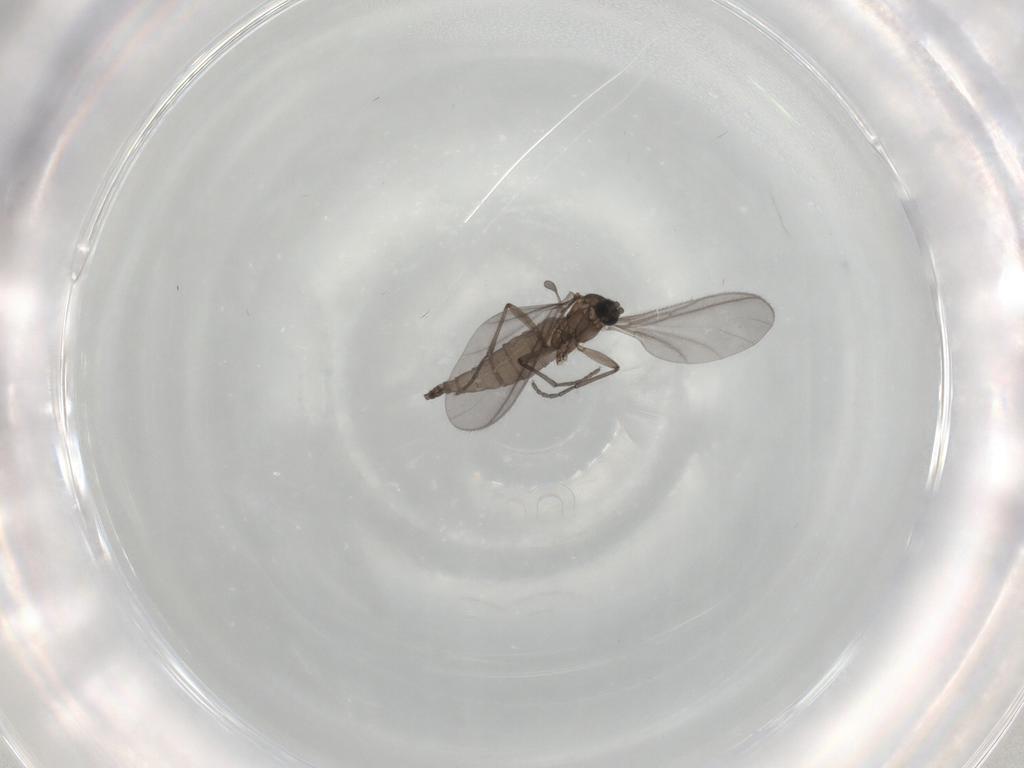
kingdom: Animalia
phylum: Arthropoda
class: Insecta
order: Diptera
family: Sciaridae
